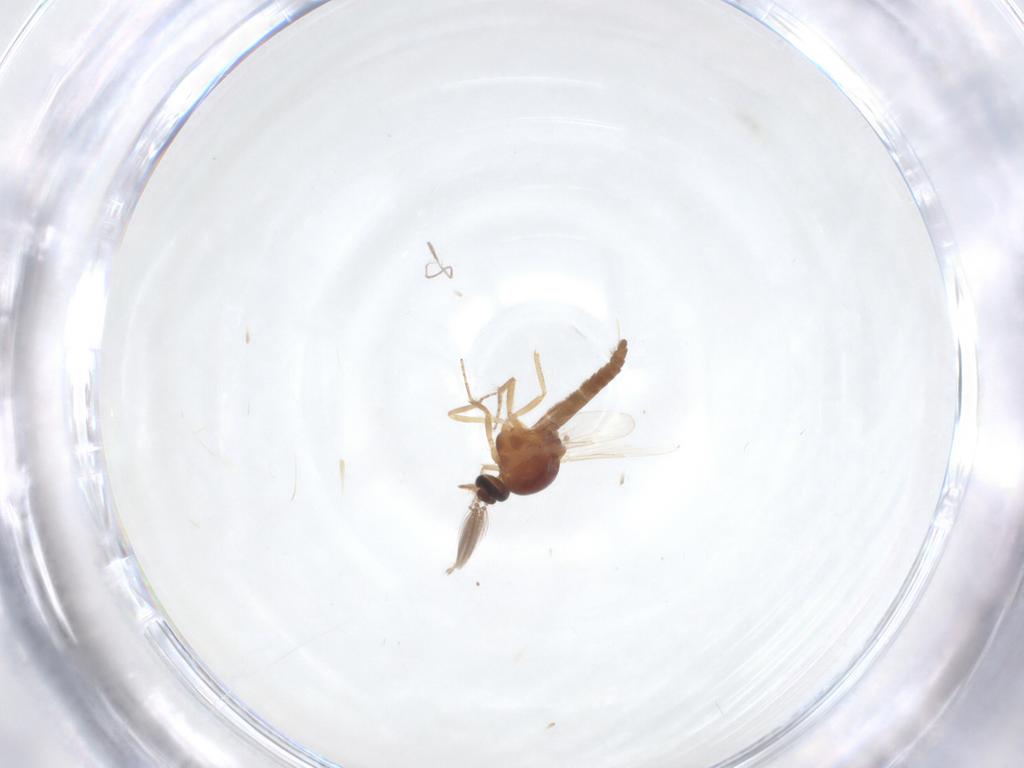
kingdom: Animalia
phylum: Arthropoda
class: Insecta
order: Diptera
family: Ceratopogonidae
